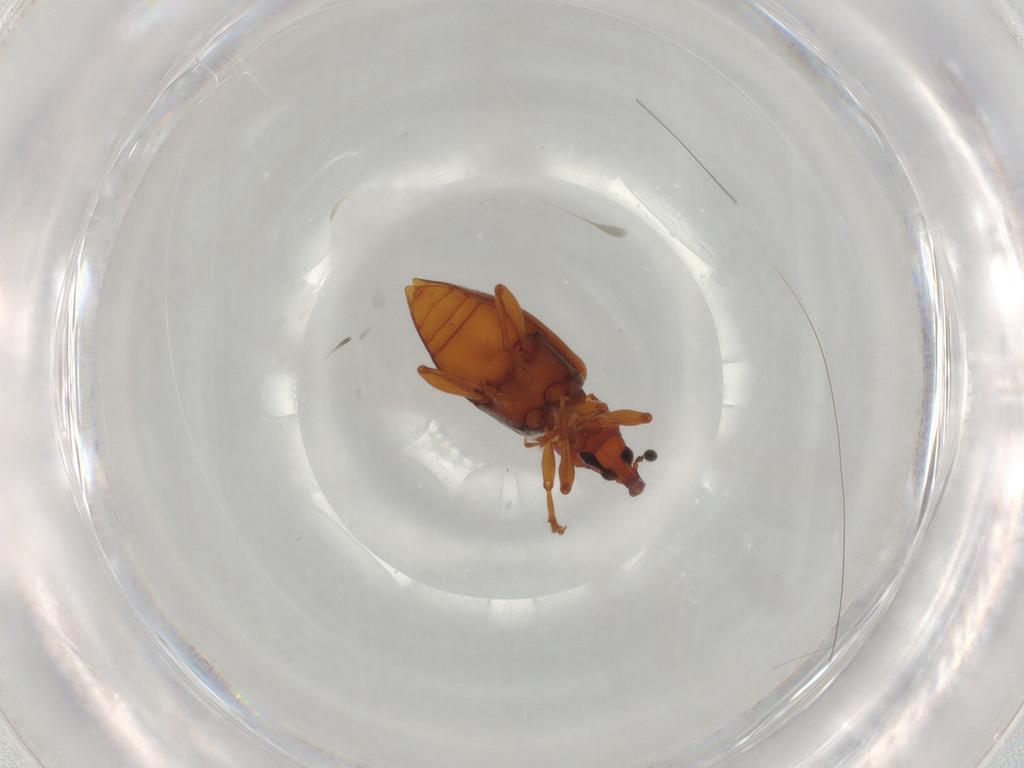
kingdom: Animalia
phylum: Arthropoda
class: Insecta
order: Coleoptera
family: Curculionidae
